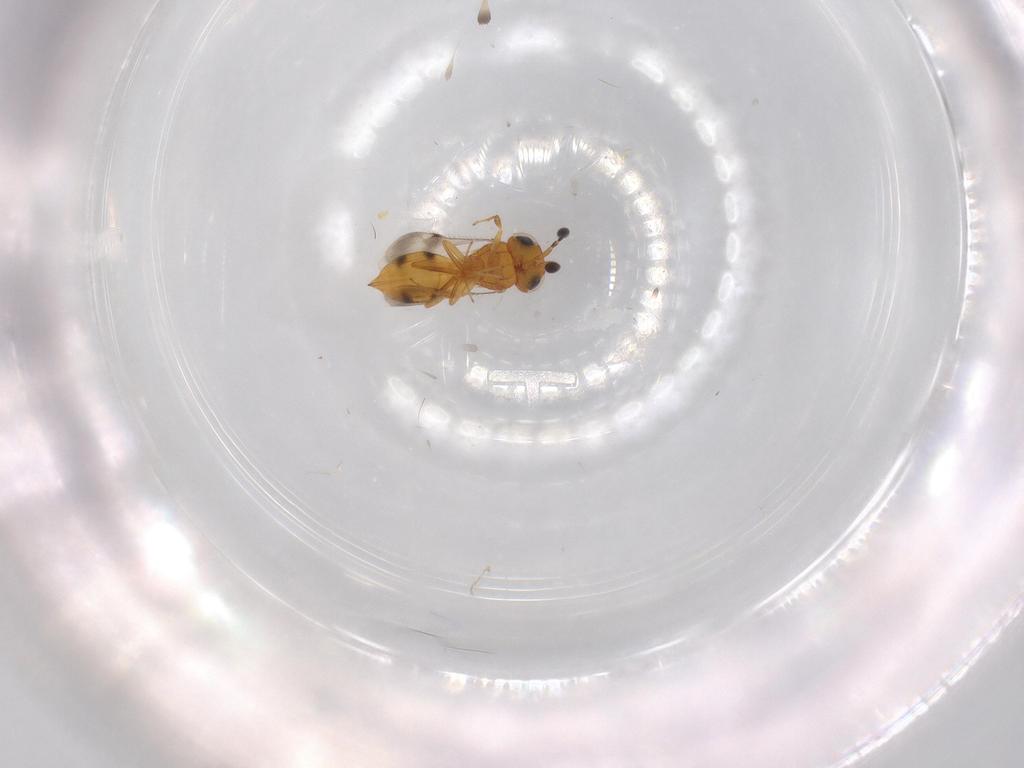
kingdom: Animalia
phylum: Arthropoda
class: Insecta
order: Hymenoptera
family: Scelionidae
